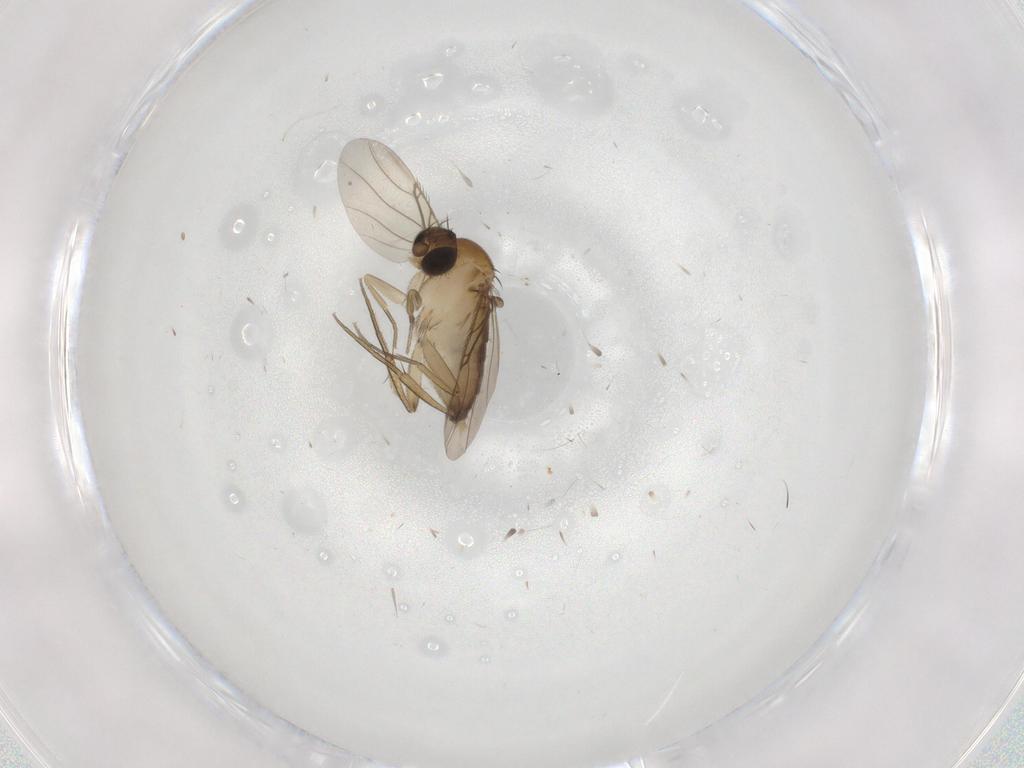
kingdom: Animalia
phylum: Arthropoda
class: Insecta
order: Diptera
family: Phoridae
